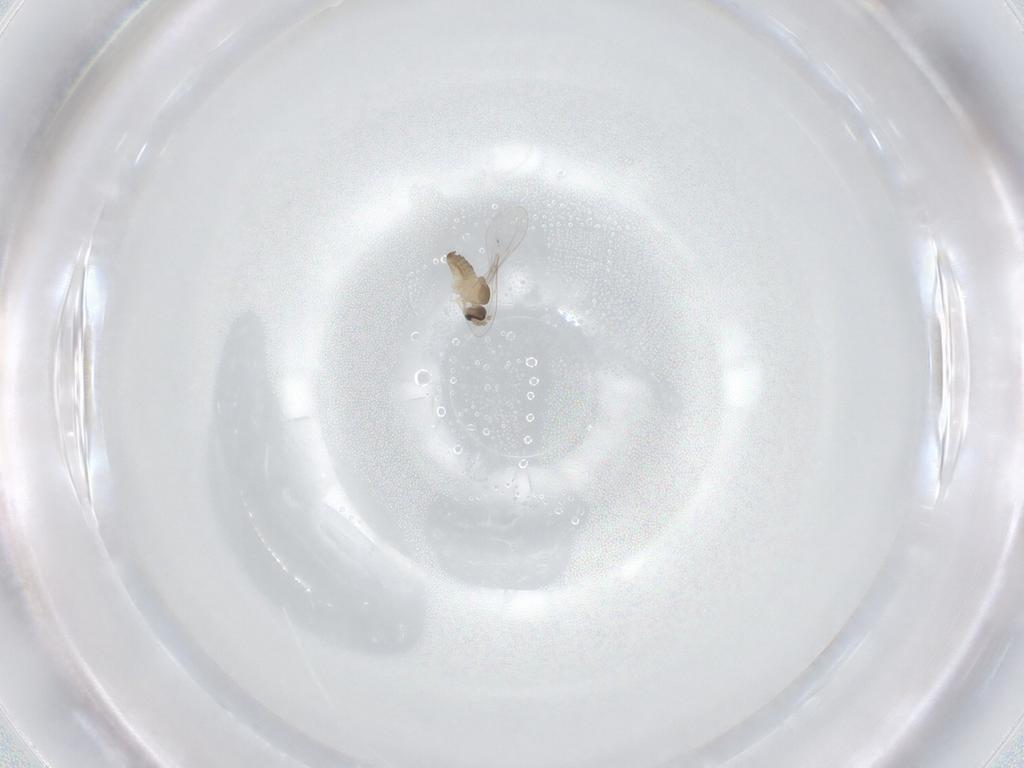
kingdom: Animalia
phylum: Arthropoda
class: Insecta
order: Diptera
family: Cecidomyiidae
